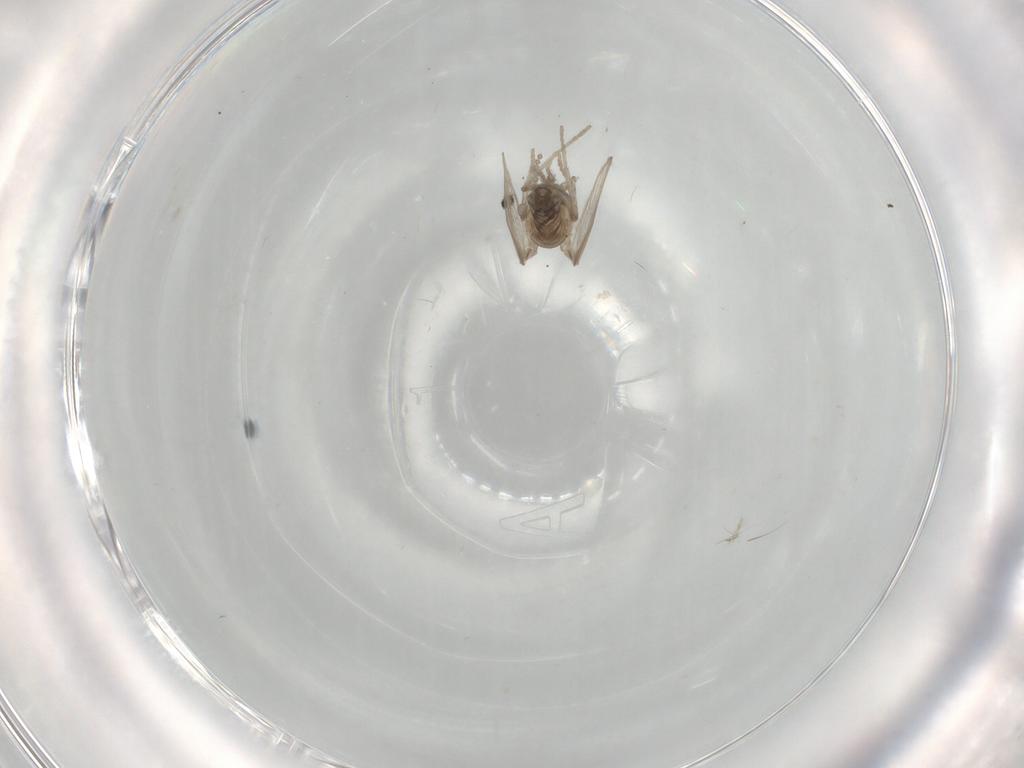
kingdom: Animalia
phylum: Arthropoda
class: Insecta
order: Diptera
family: Psychodidae
